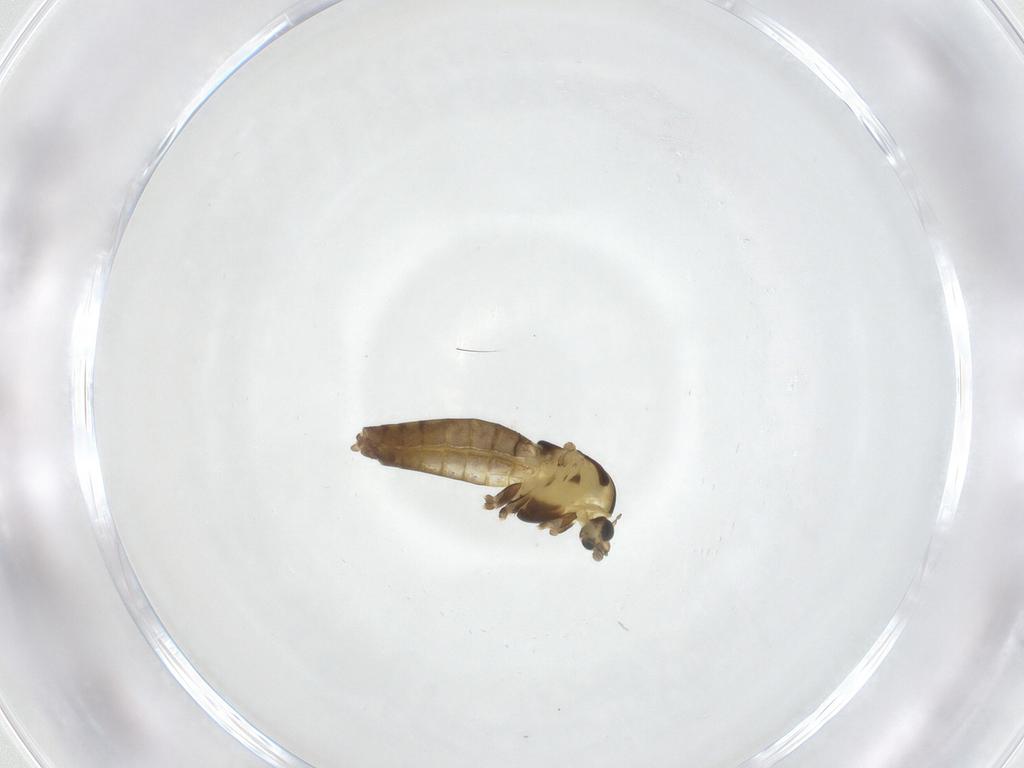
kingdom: Animalia
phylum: Arthropoda
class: Insecta
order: Diptera
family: Chironomidae
